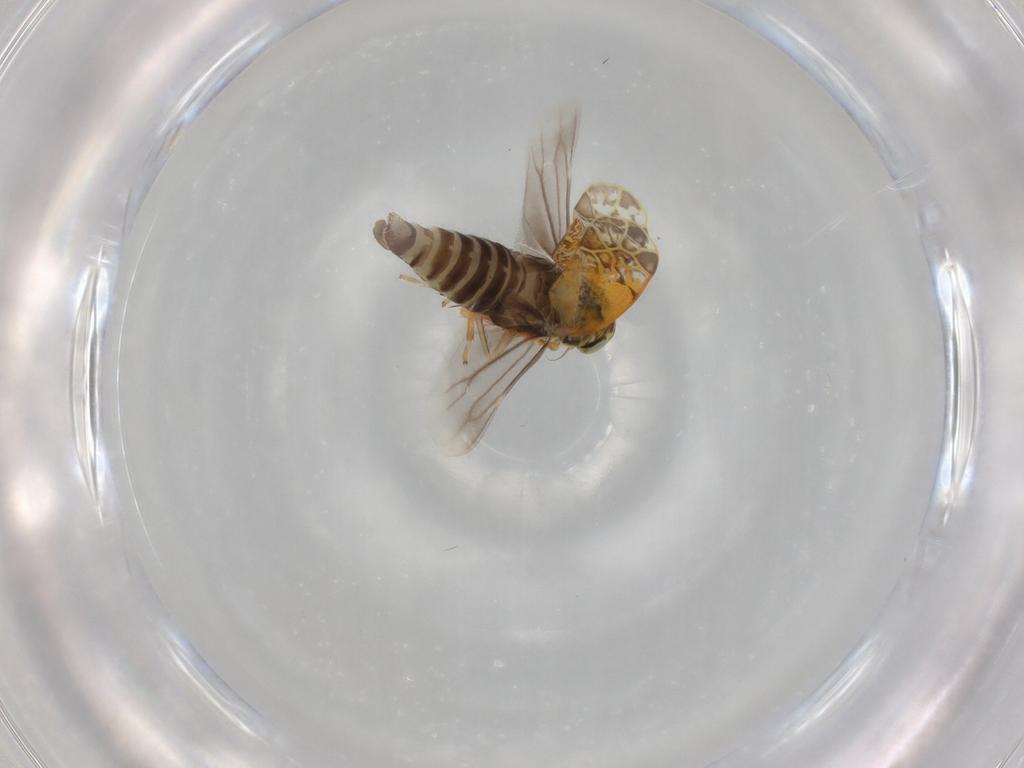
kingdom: Animalia
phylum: Arthropoda
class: Insecta
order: Hemiptera
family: Cicadellidae
